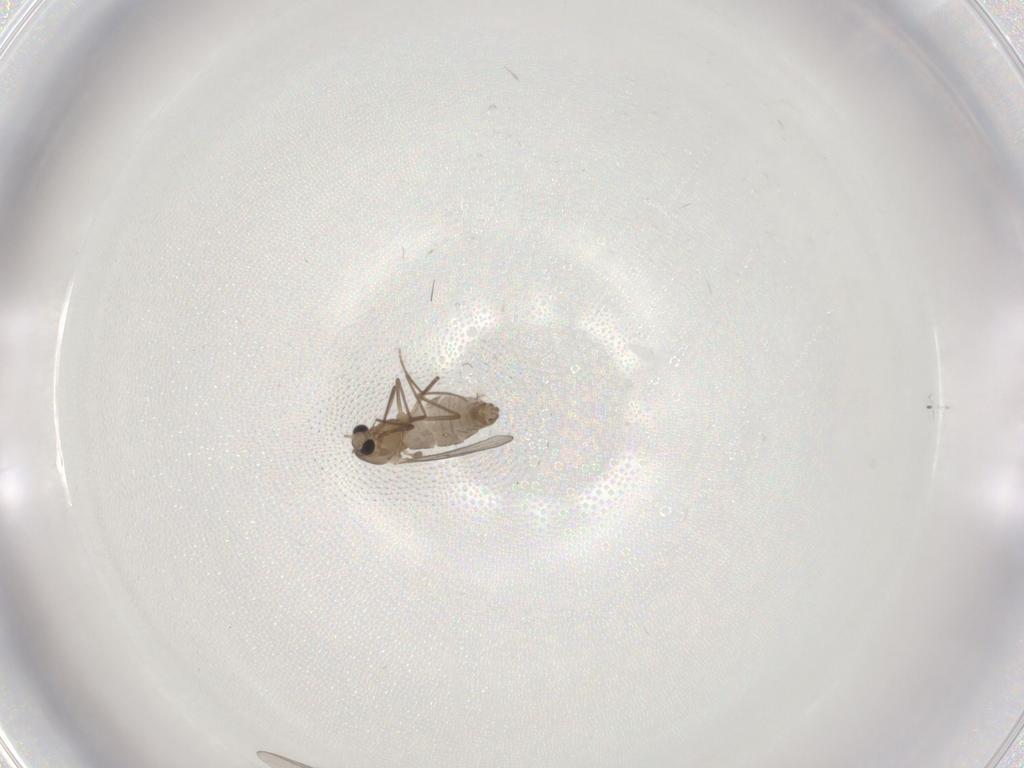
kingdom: Animalia
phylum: Arthropoda
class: Insecta
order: Diptera
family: Chironomidae
